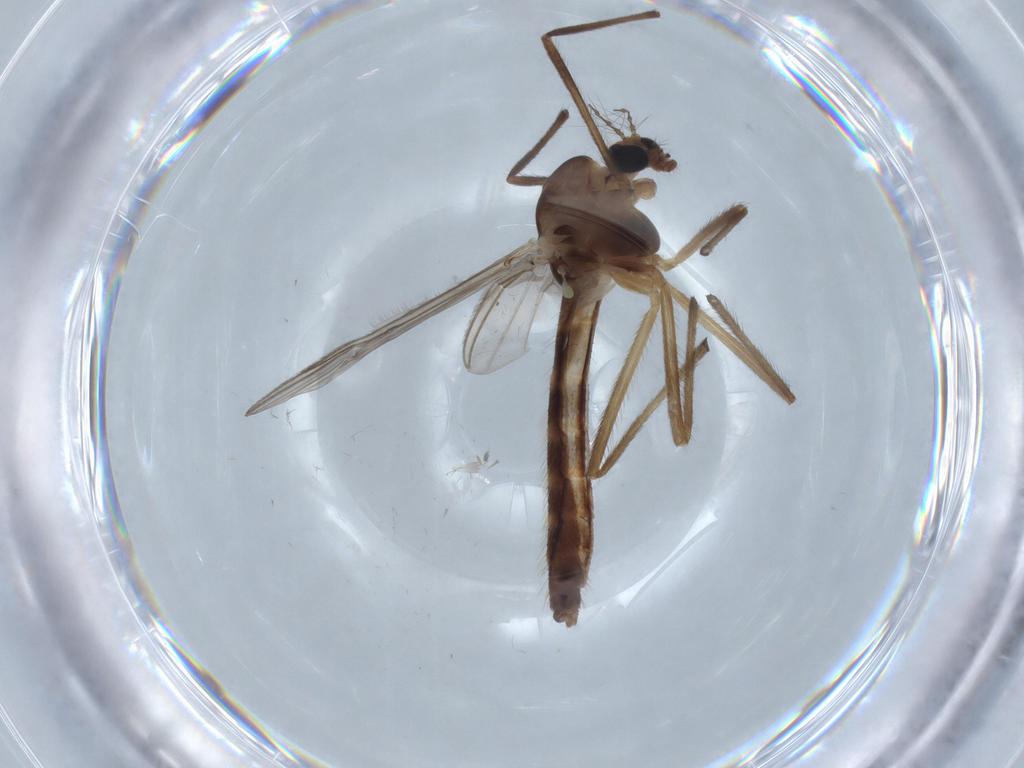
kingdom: Animalia
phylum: Arthropoda
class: Insecta
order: Diptera
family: Chironomidae
